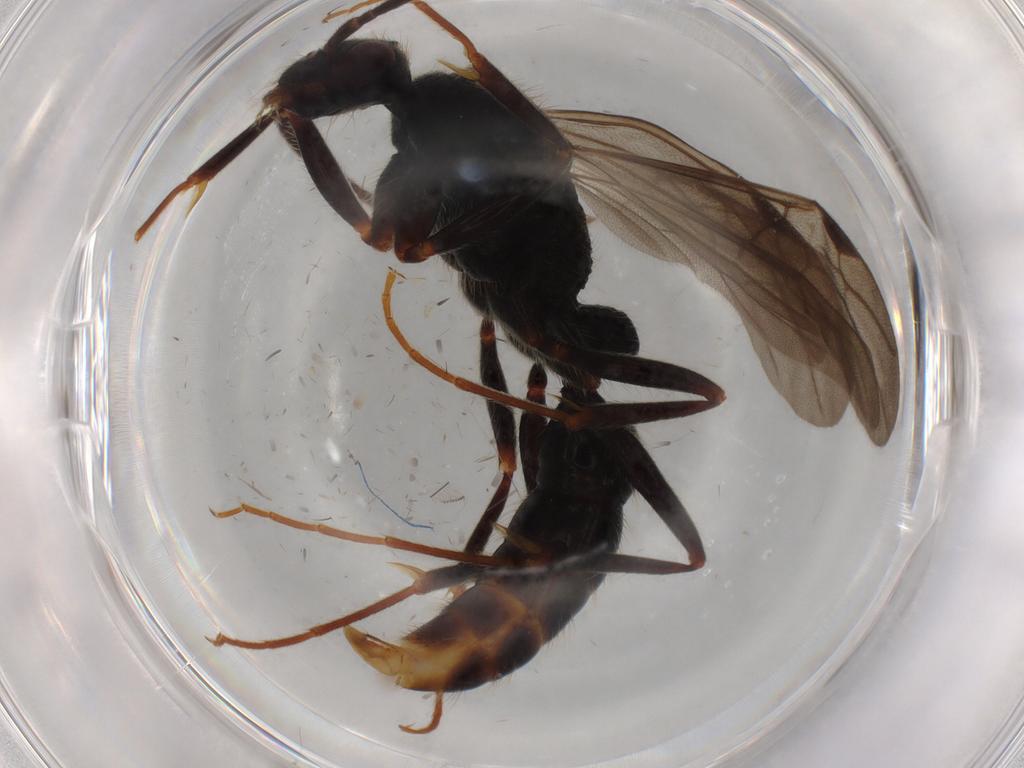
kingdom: Animalia
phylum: Arthropoda
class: Insecta
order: Hymenoptera
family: Formicidae
